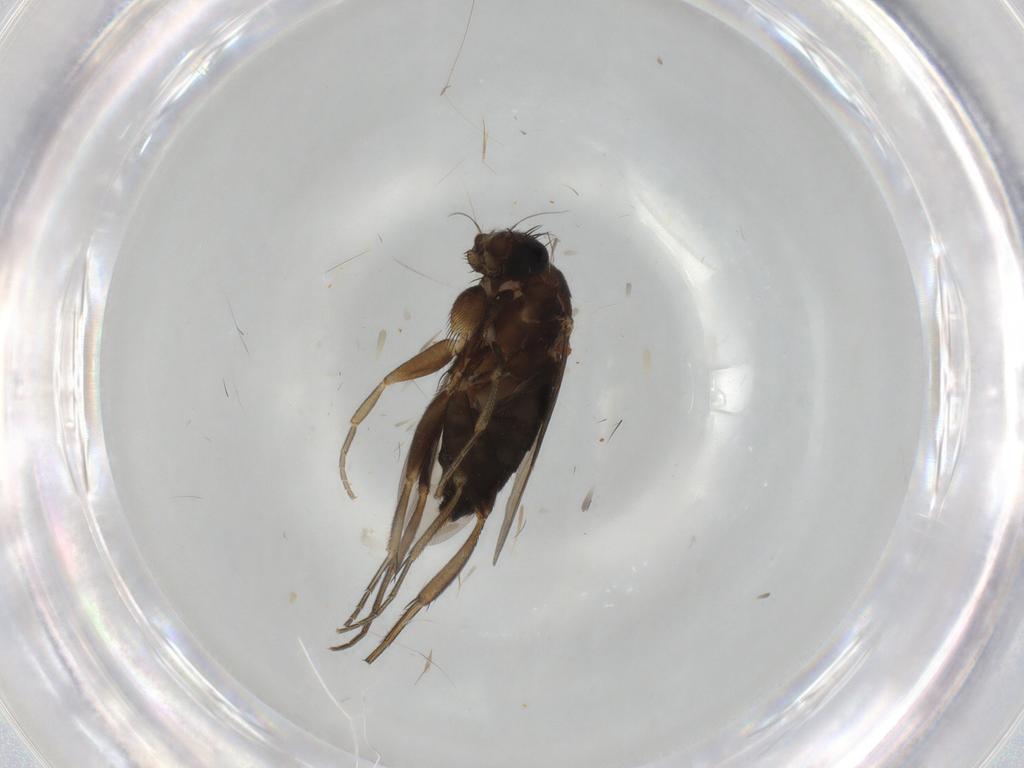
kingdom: Animalia
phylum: Arthropoda
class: Insecta
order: Diptera
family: Phoridae
